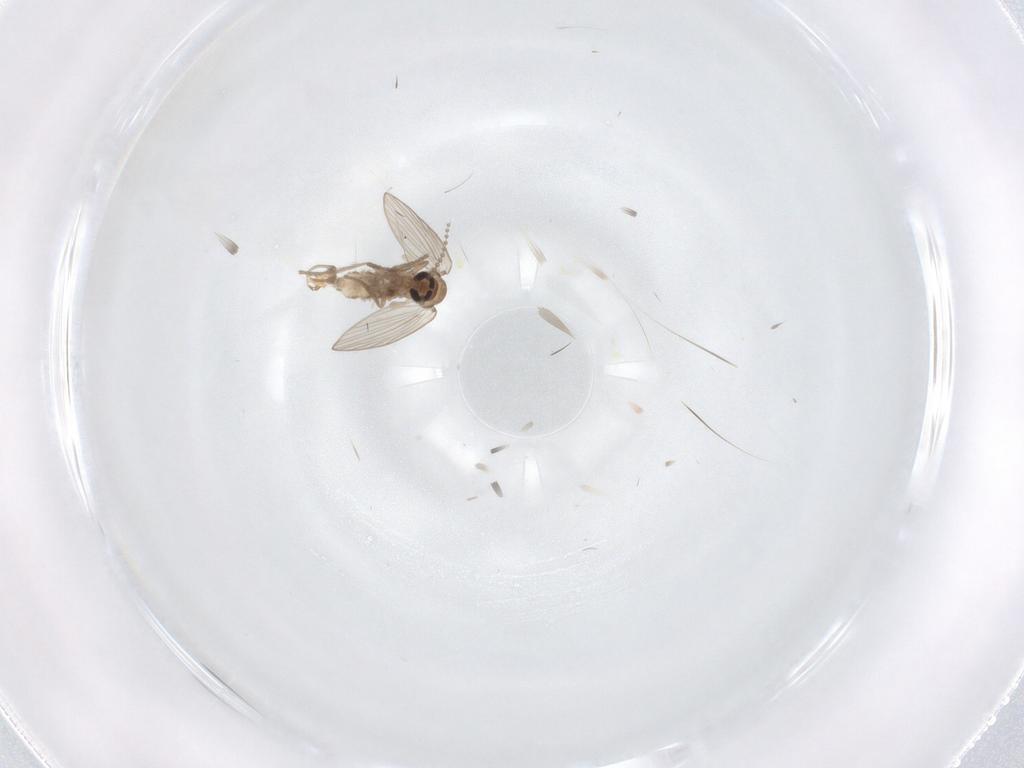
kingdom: Animalia
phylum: Arthropoda
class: Insecta
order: Diptera
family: Psychodidae
